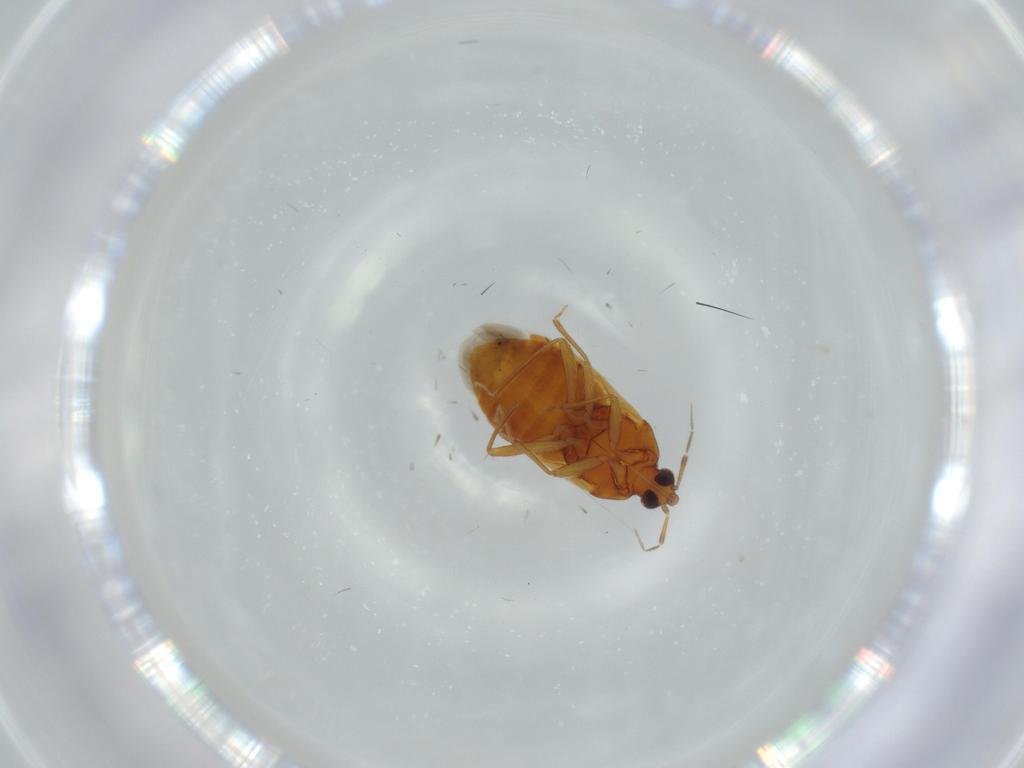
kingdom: Animalia
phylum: Arthropoda
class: Insecta
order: Hemiptera
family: Anthocoridae
